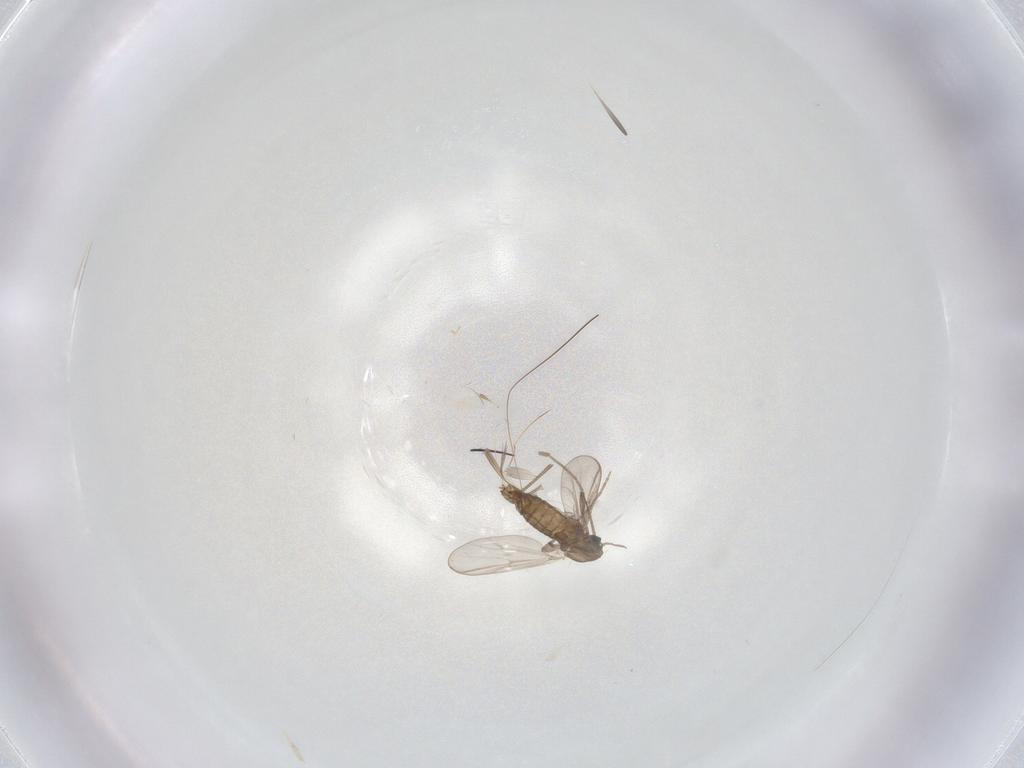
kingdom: Animalia
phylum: Arthropoda
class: Insecta
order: Diptera
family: Chironomidae
